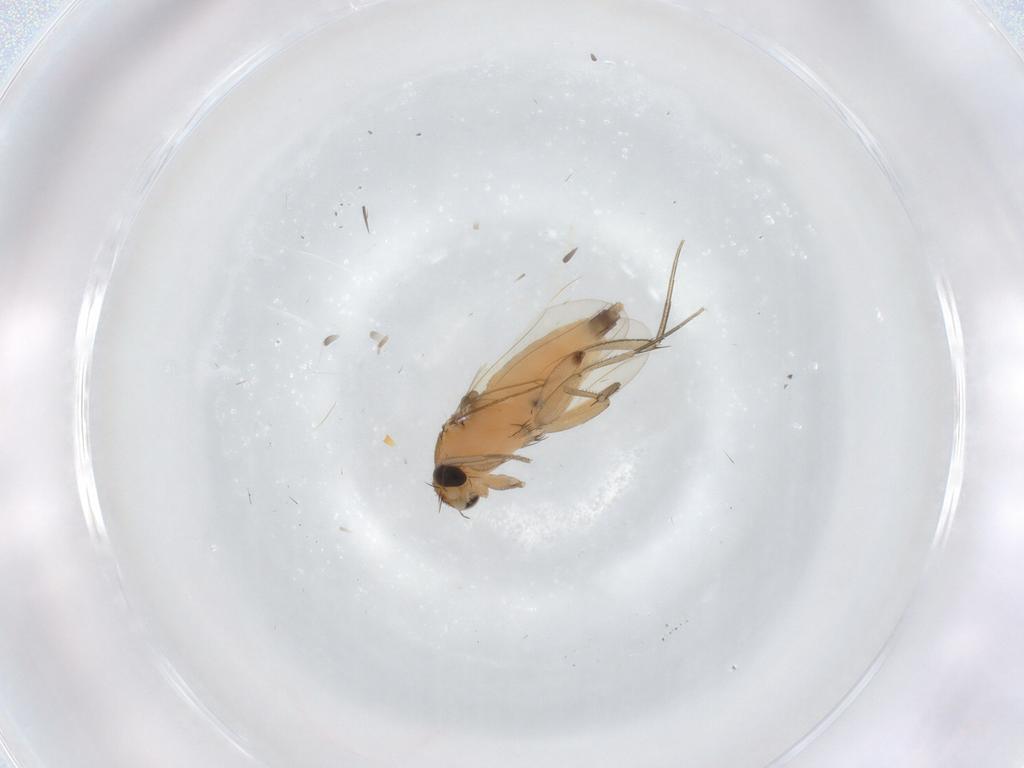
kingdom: Animalia
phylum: Arthropoda
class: Insecta
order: Diptera
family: Phoridae
